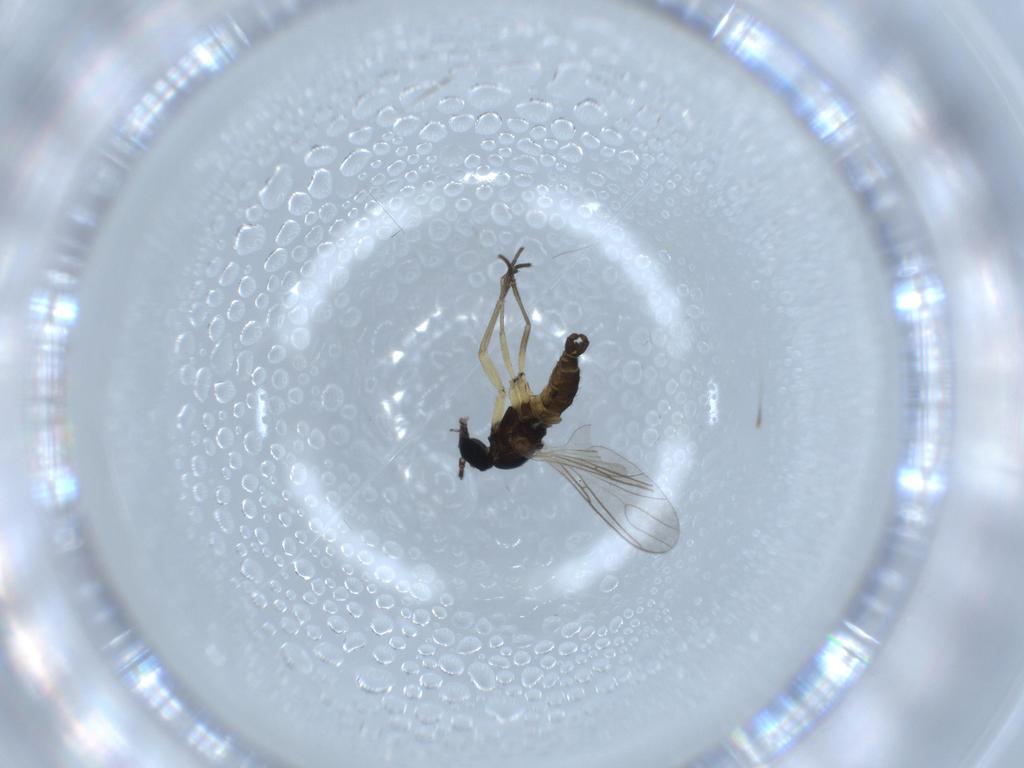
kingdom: Animalia
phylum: Arthropoda
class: Insecta
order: Diptera
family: Sciaridae
